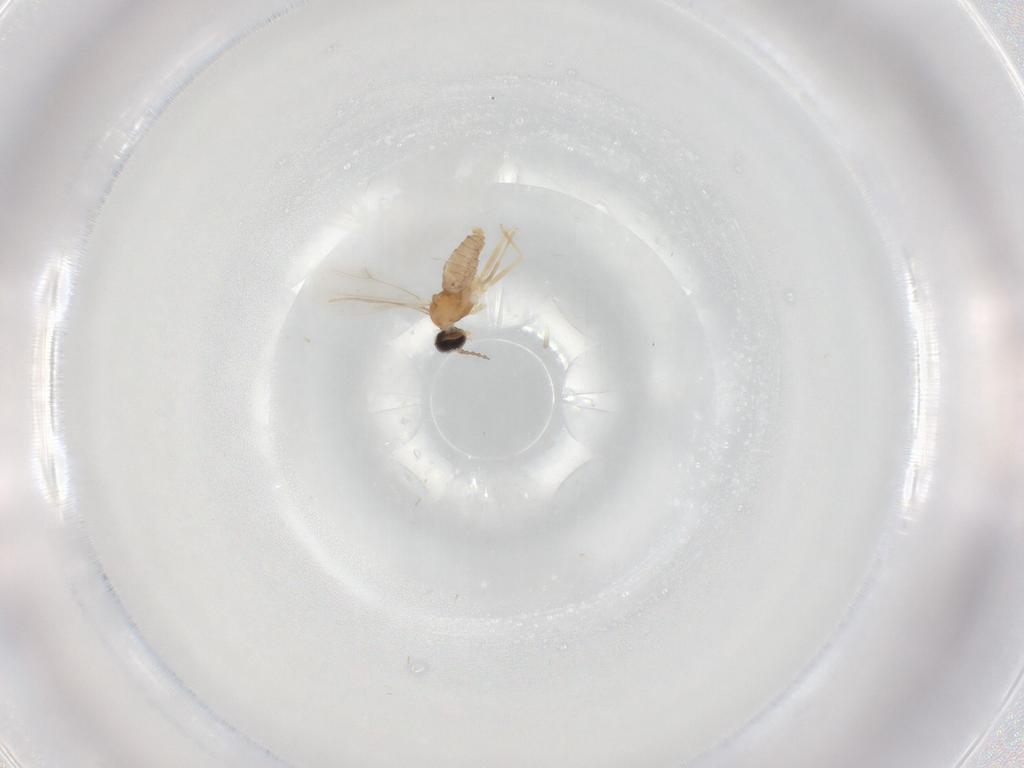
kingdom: Animalia
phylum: Arthropoda
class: Insecta
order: Diptera
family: Cecidomyiidae
